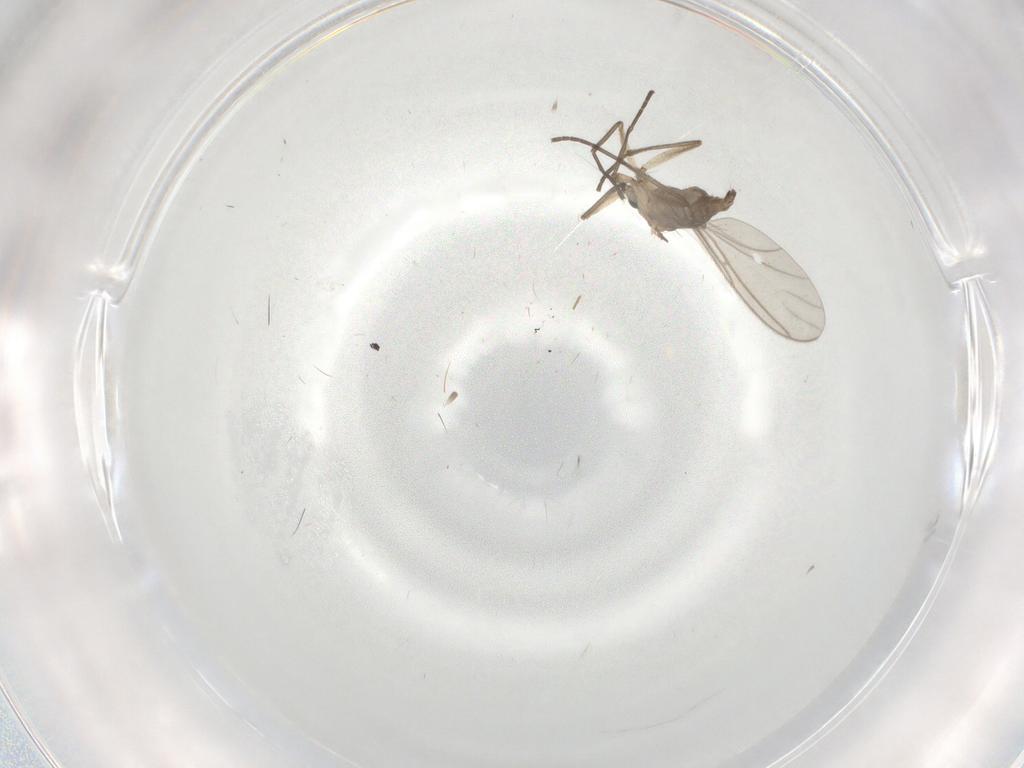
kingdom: Animalia
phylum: Arthropoda
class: Insecta
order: Diptera
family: Sciaridae
